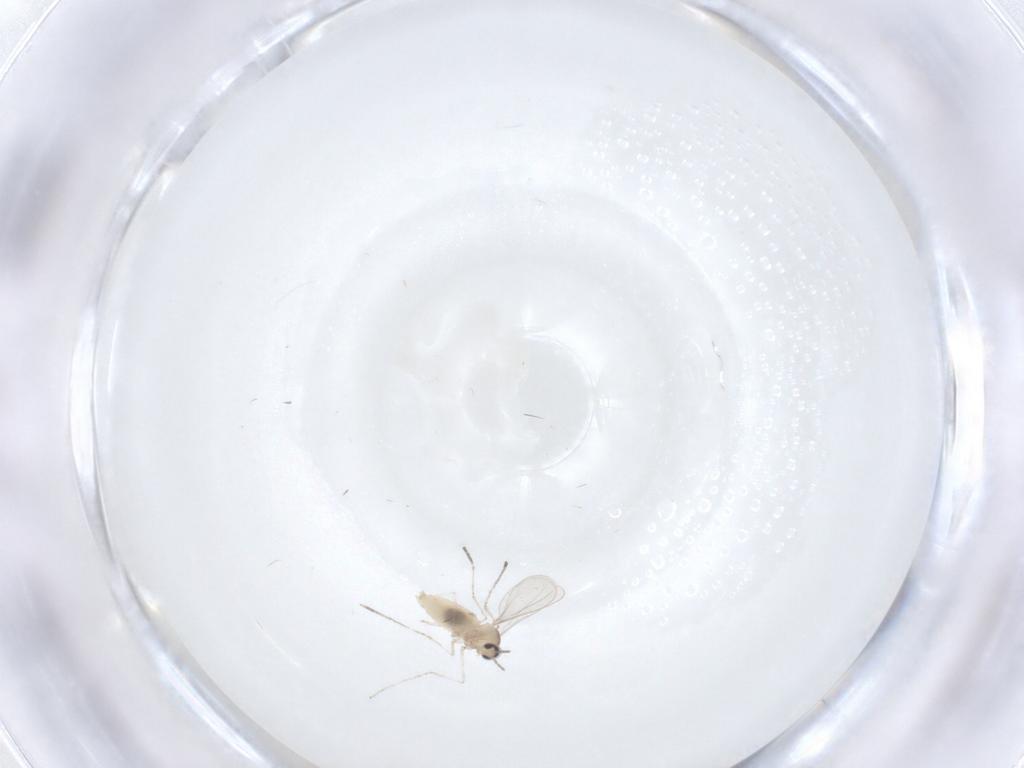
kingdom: Animalia
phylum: Arthropoda
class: Insecta
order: Diptera
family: Cecidomyiidae
